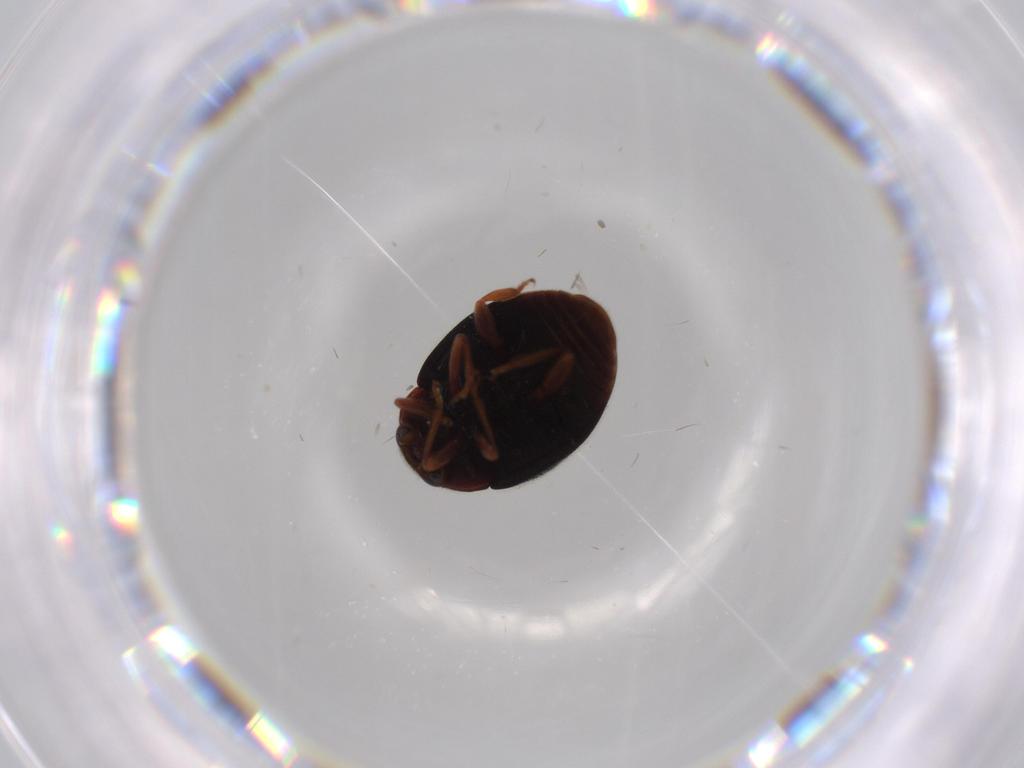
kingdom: Animalia
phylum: Arthropoda
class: Insecta
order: Coleoptera
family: Coccinellidae
